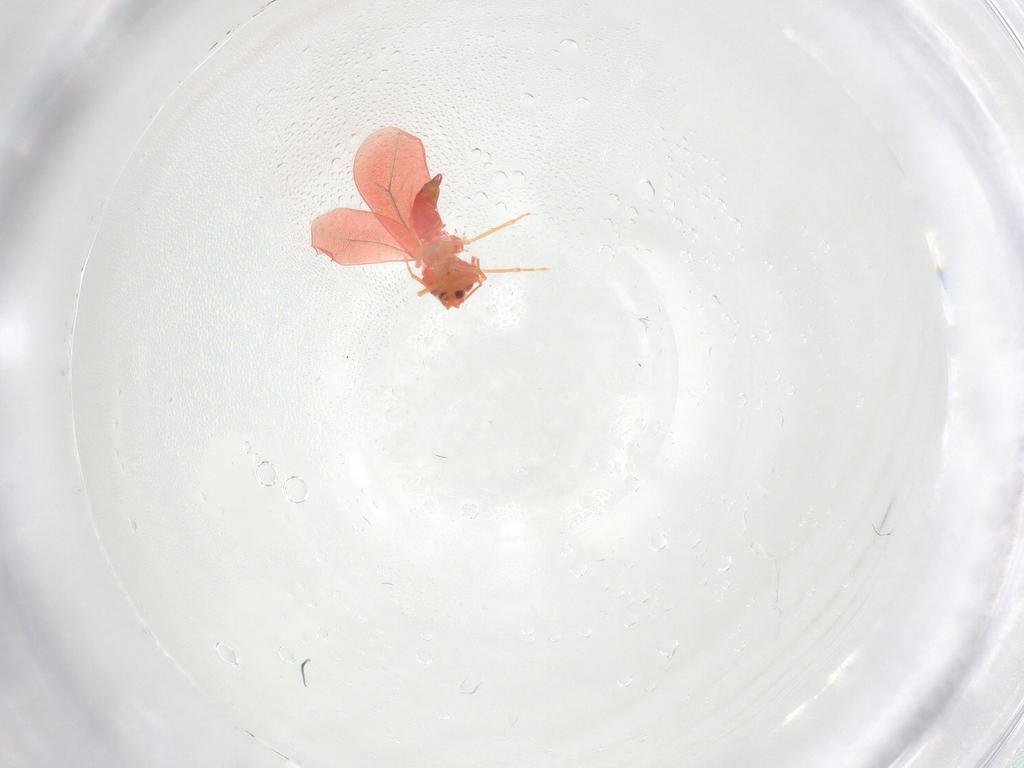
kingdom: Animalia
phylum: Arthropoda
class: Insecta
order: Hemiptera
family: Aleyrodidae
